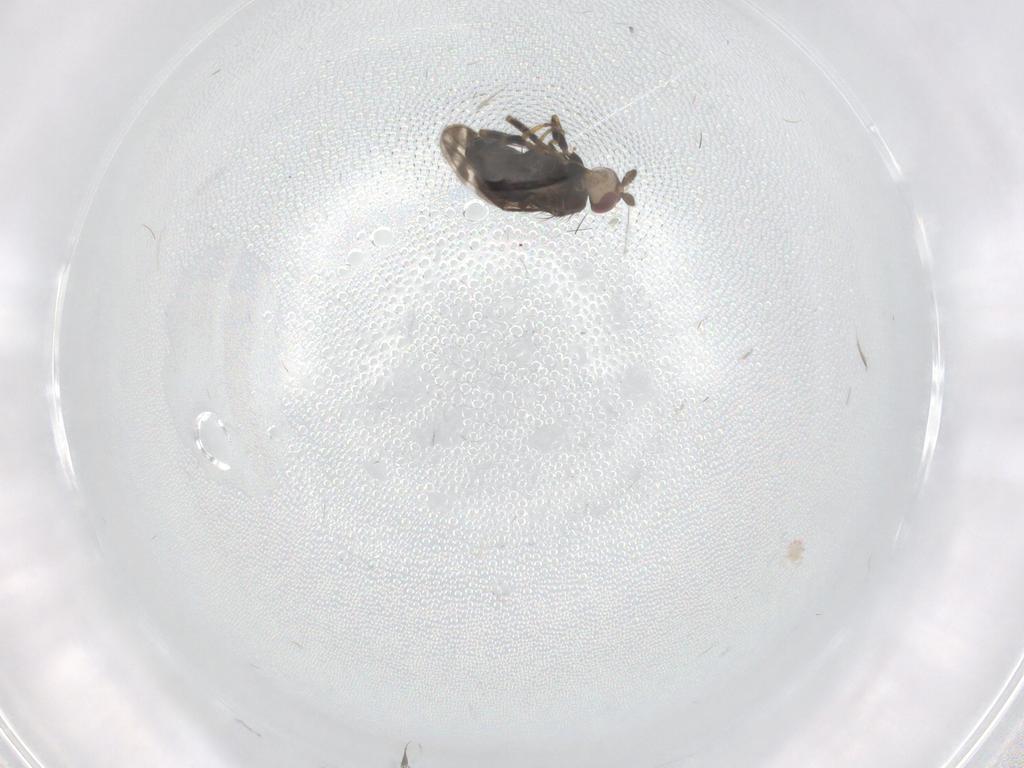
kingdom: Animalia
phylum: Arthropoda
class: Insecta
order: Diptera
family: Sphaeroceridae
